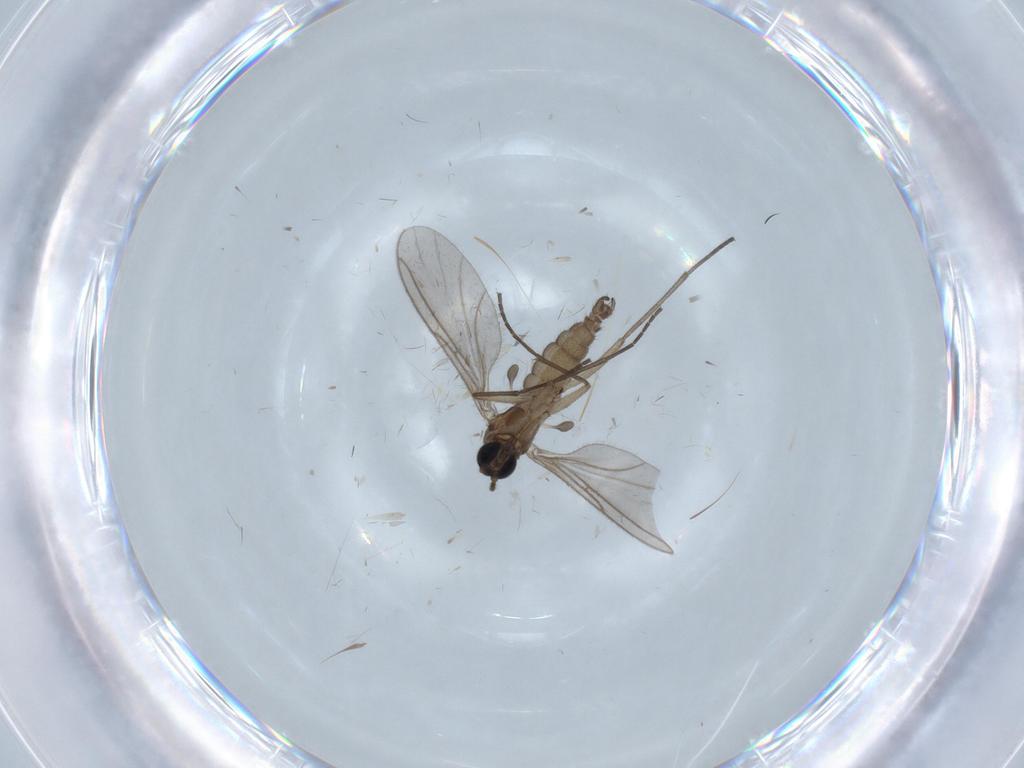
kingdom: Animalia
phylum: Arthropoda
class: Insecta
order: Diptera
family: Sciaridae
